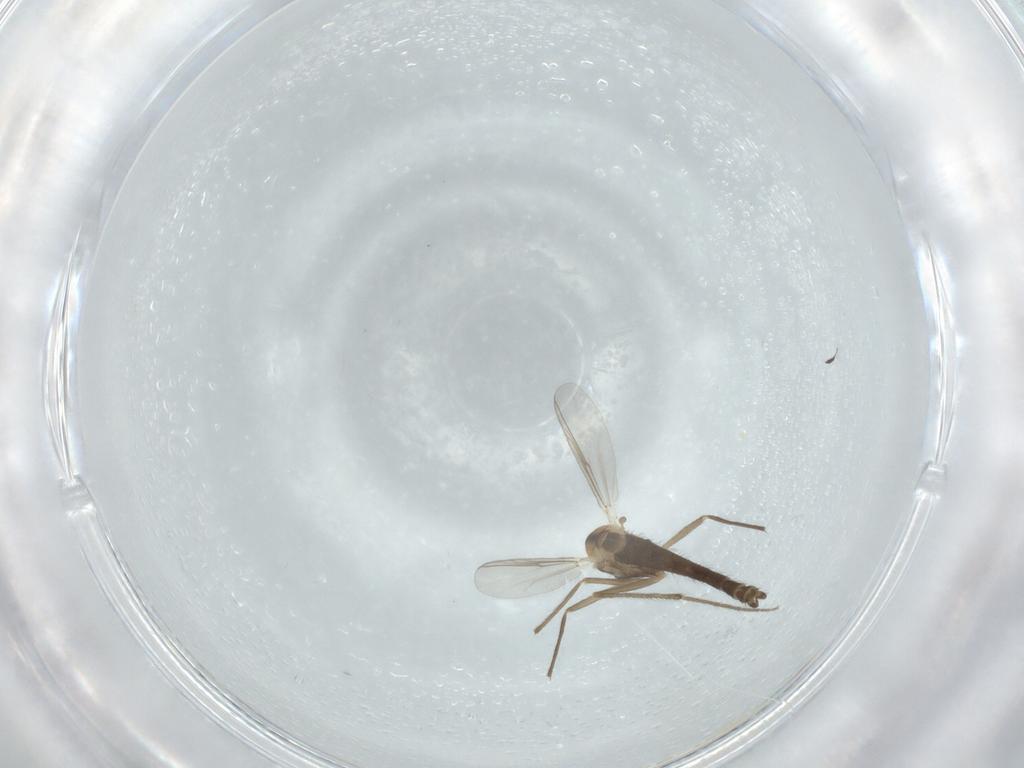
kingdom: Animalia
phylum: Arthropoda
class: Insecta
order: Diptera
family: Chironomidae
